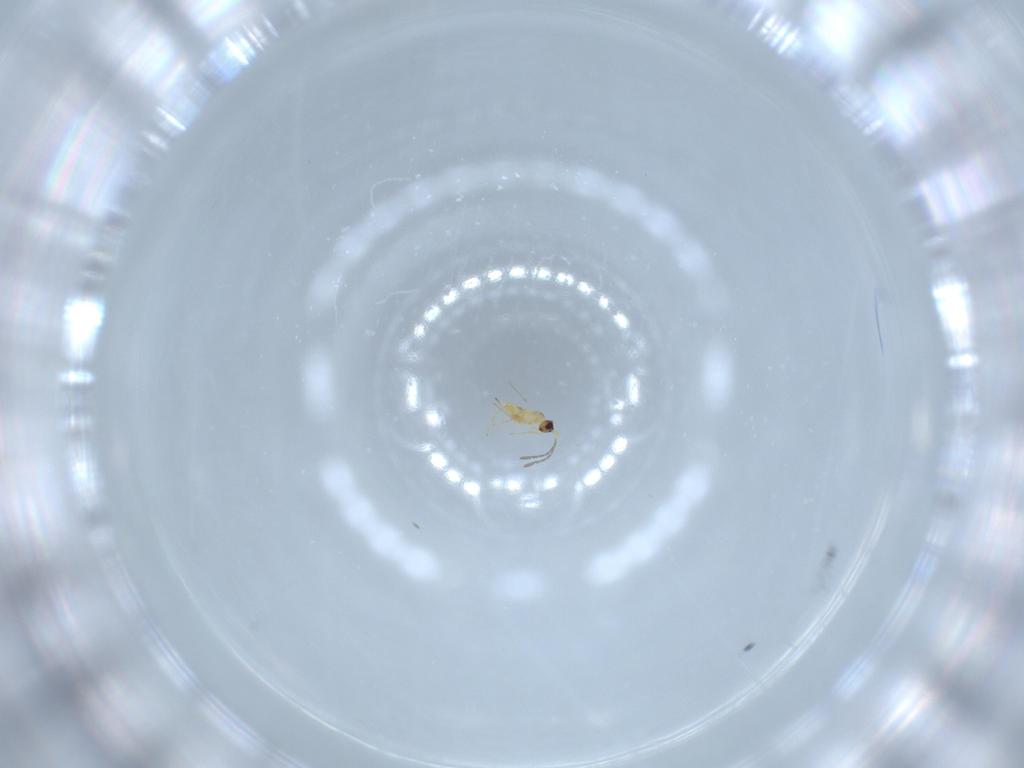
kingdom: Animalia
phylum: Arthropoda
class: Insecta
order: Hymenoptera
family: Mymaridae
